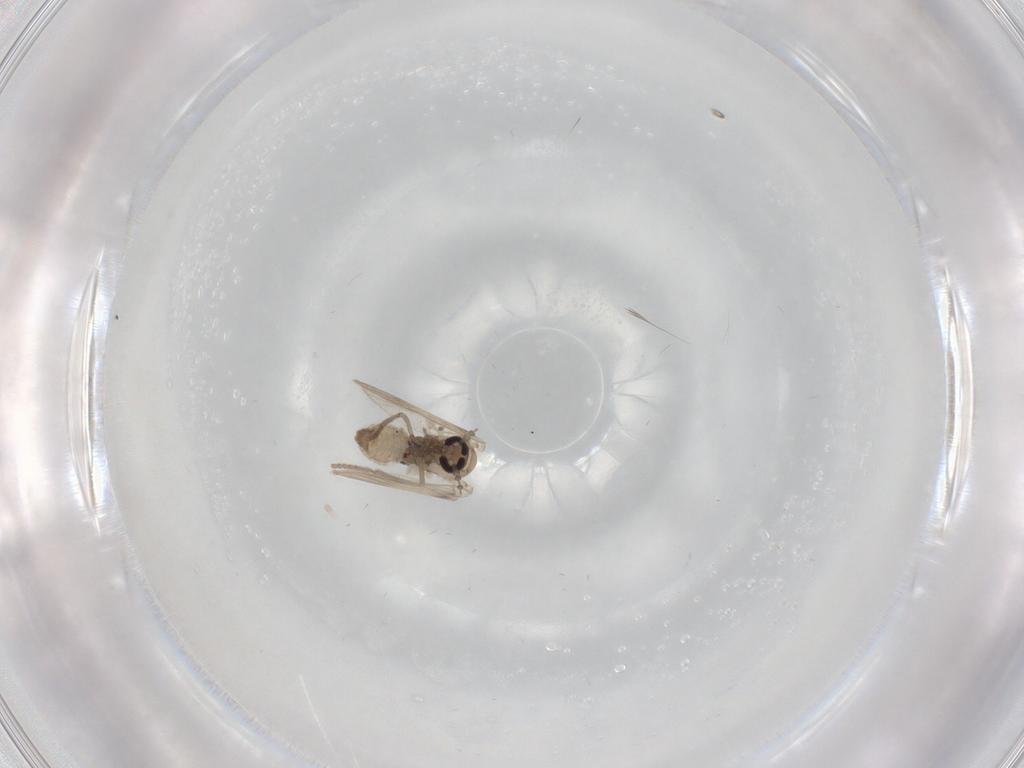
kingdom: Animalia
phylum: Arthropoda
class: Insecta
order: Diptera
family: Psychodidae
